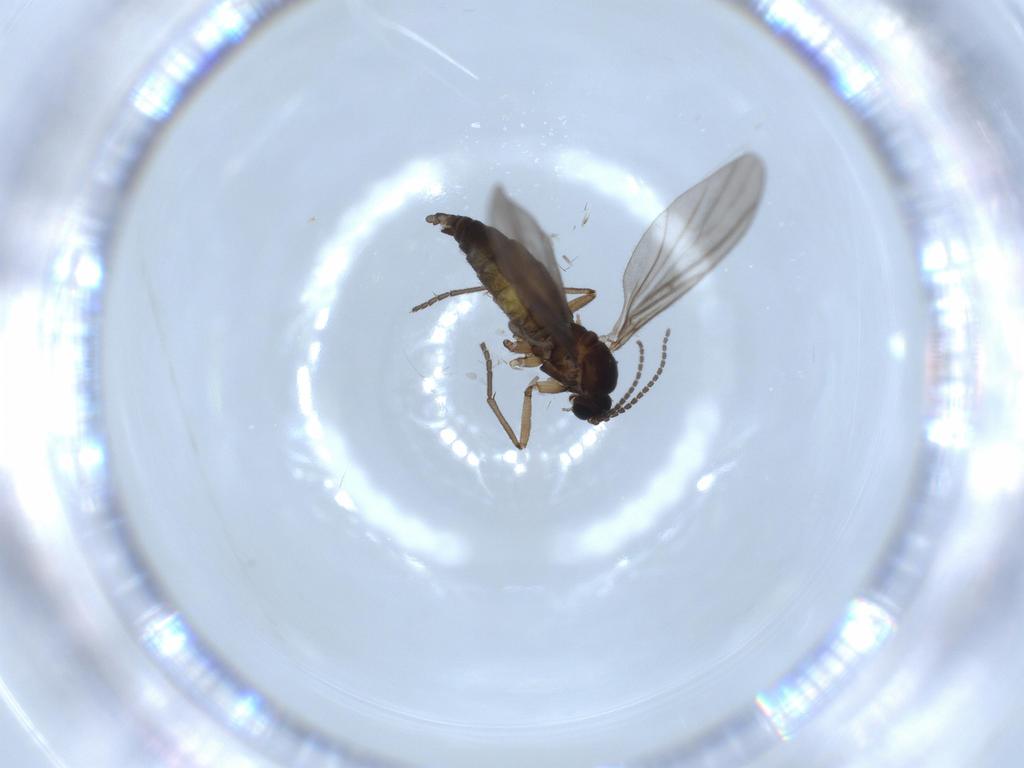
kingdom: Animalia
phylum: Arthropoda
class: Insecta
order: Diptera
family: Sciaridae
